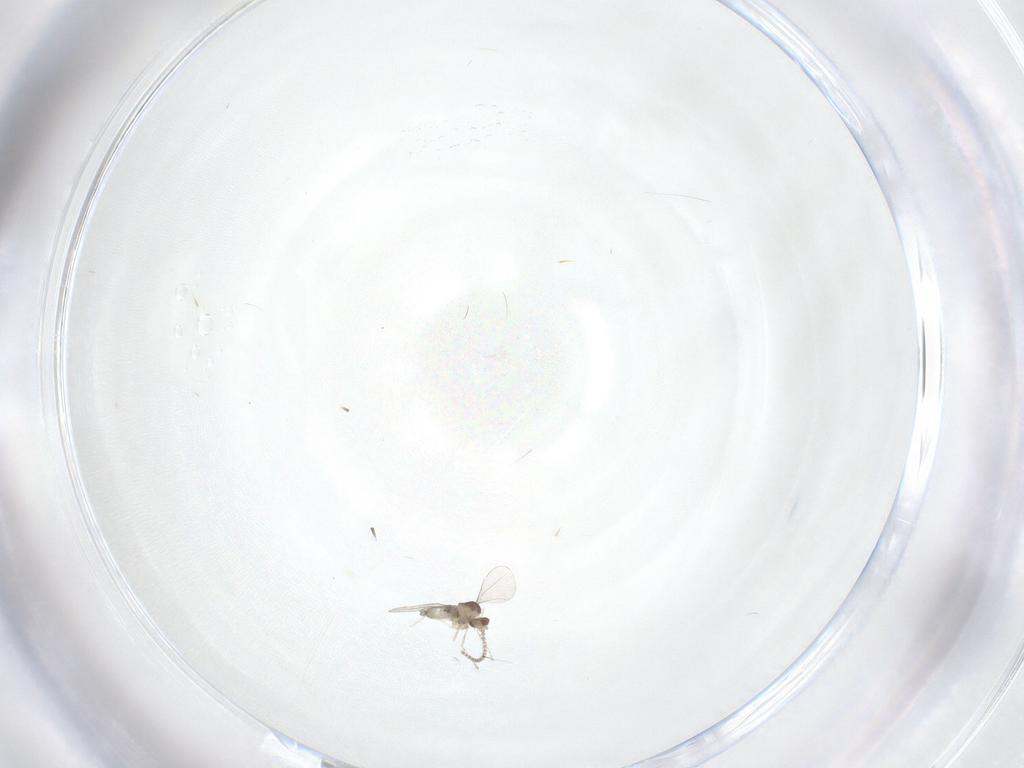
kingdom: Animalia
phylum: Arthropoda
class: Insecta
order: Diptera
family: Cecidomyiidae
